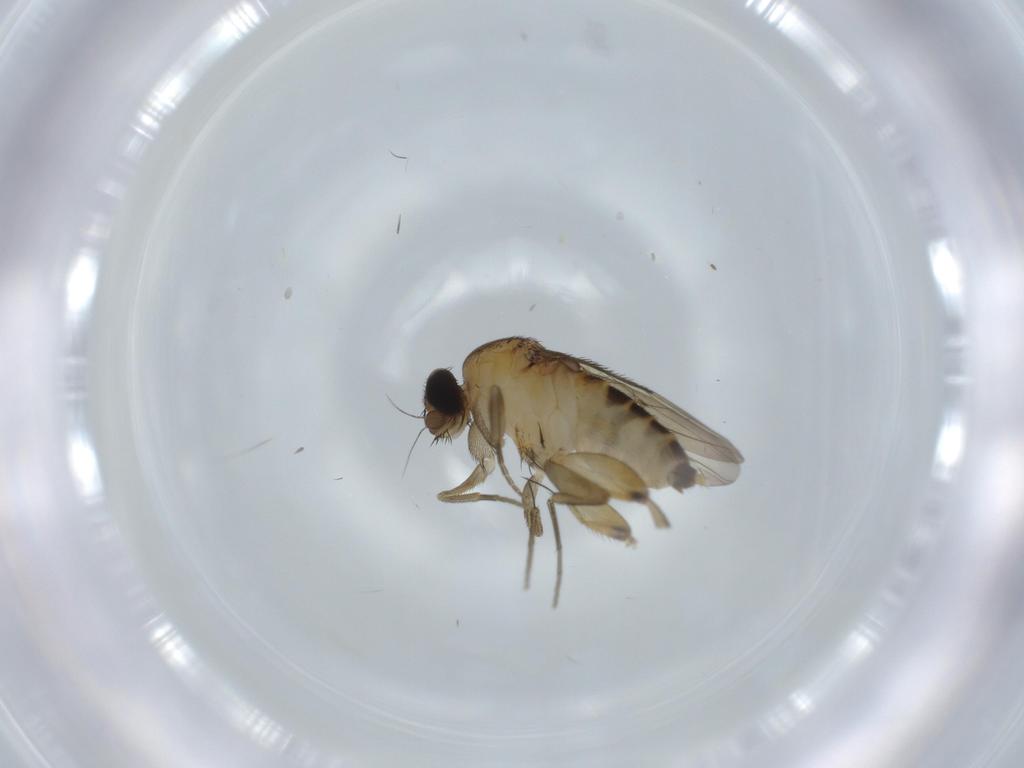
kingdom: Animalia
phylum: Arthropoda
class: Insecta
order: Diptera
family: Phoridae
